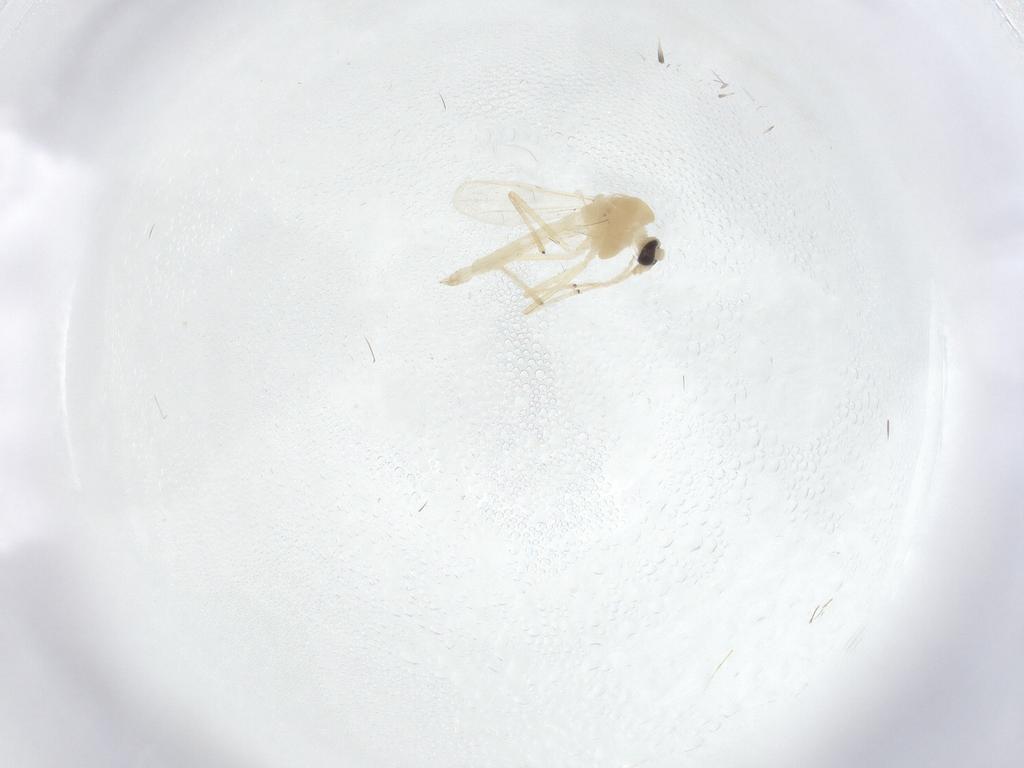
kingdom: Animalia
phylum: Arthropoda
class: Insecta
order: Diptera
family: Chironomidae
